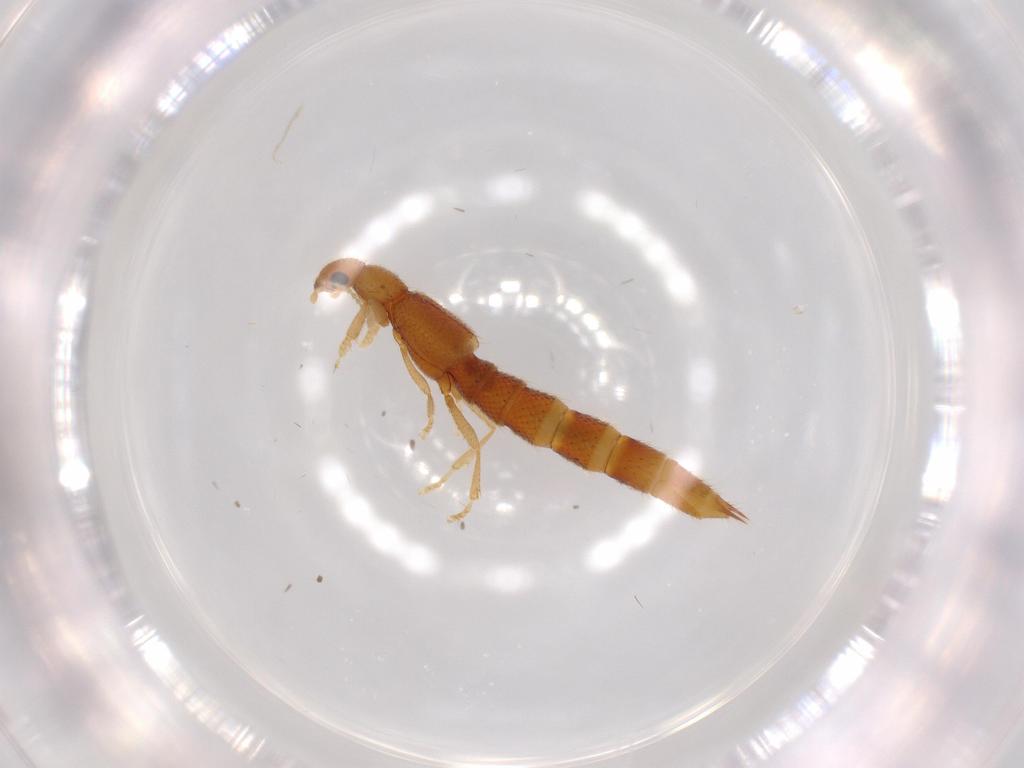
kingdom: Animalia
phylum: Arthropoda
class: Insecta
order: Coleoptera
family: Staphylinidae
